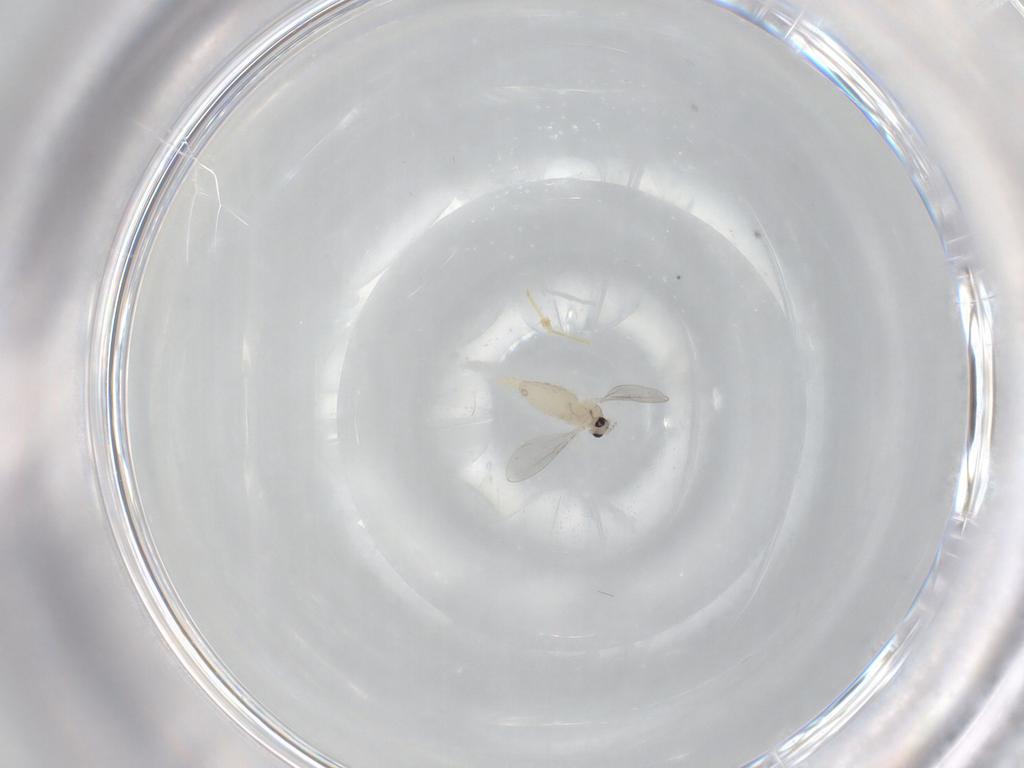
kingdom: Animalia
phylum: Arthropoda
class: Insecta
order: Diptera
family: Cecidomyiidae
